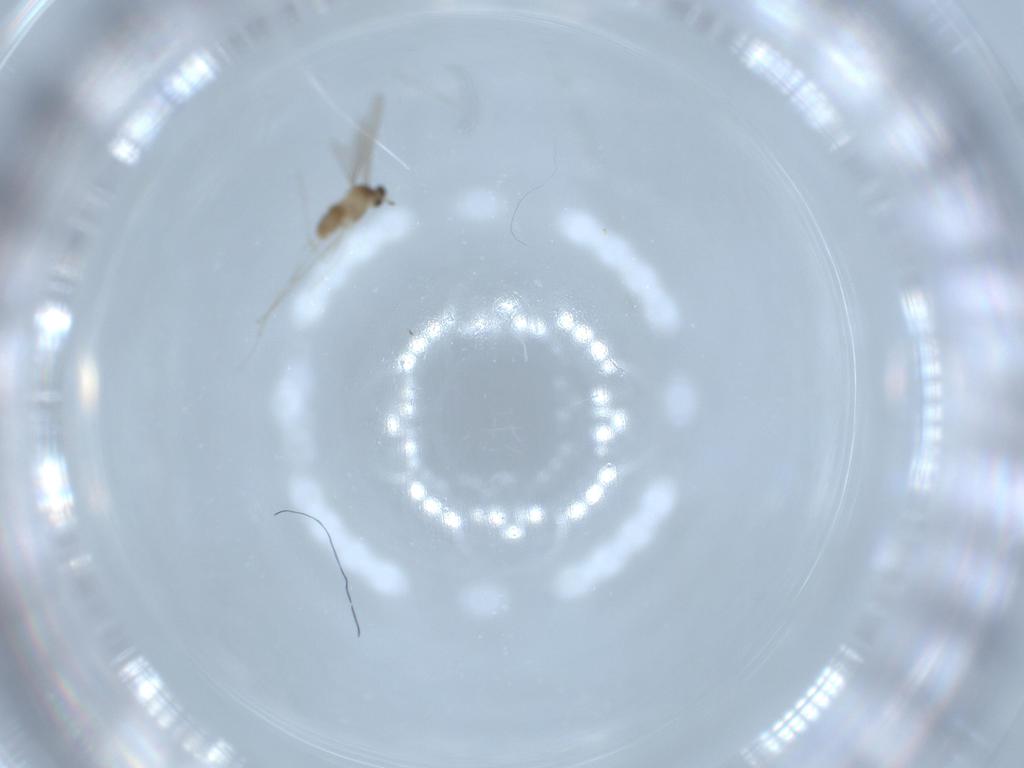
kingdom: Animalia
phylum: Arthropoda
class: Insecta
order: Diptera
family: Cecidomyiidae
